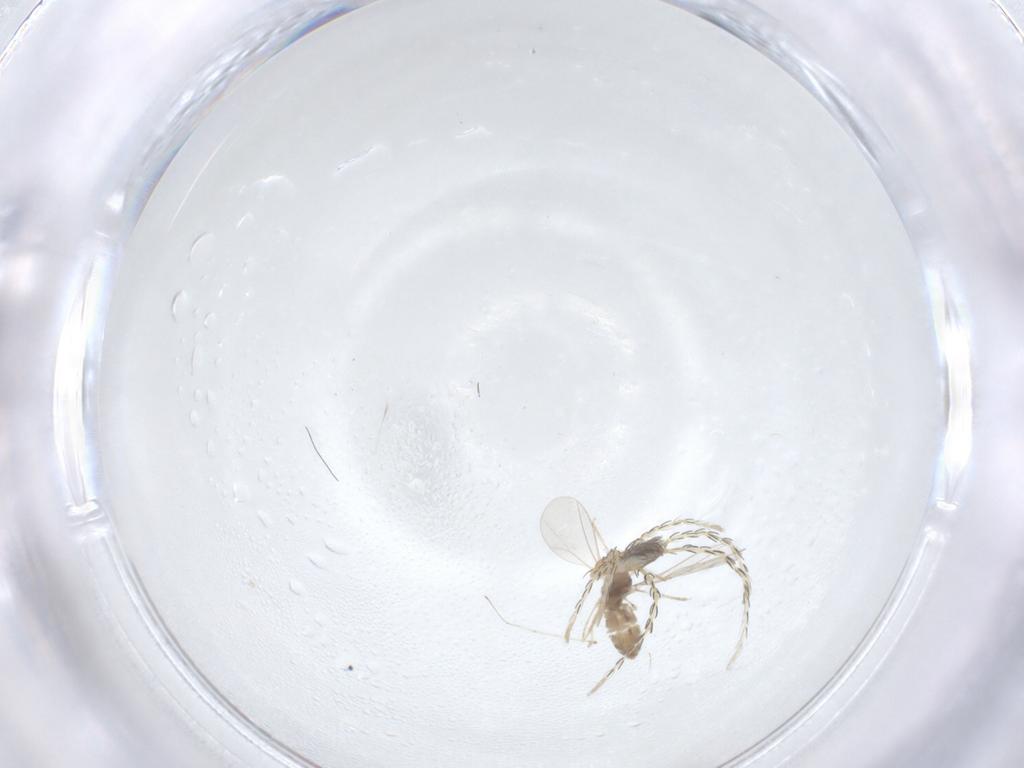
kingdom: Animalia
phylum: Arthropoda
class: Insecta
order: Diptera
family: Cecidomyiidae
